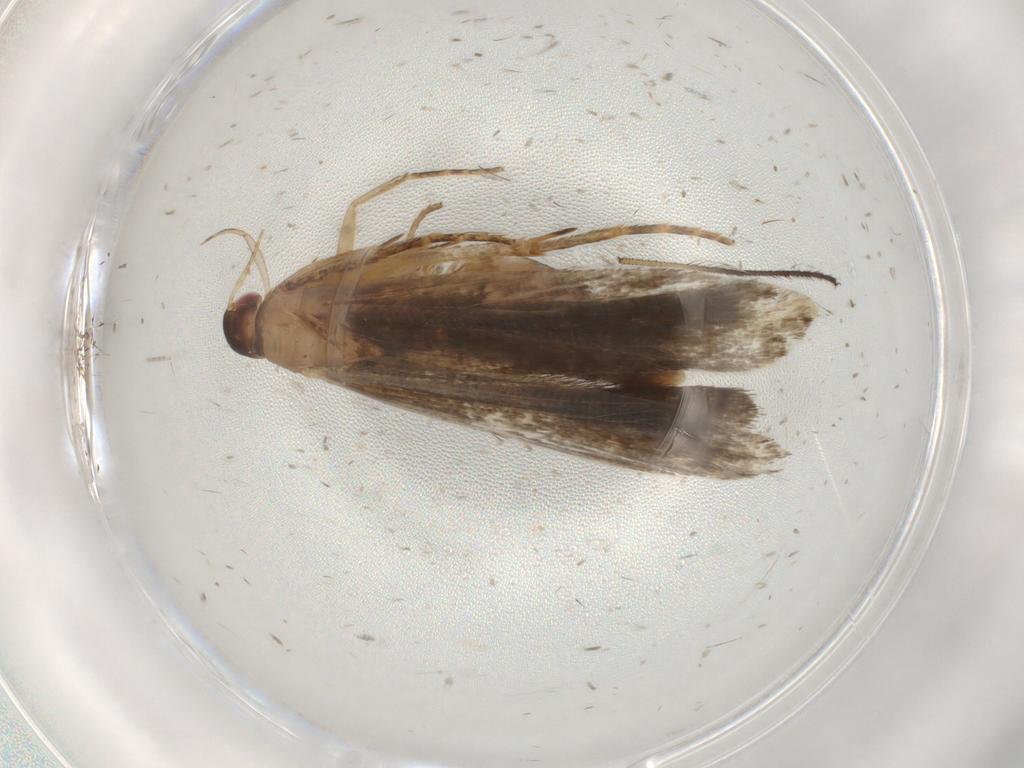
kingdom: Animalia
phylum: Arthropoda
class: Insecta
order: Lepidoptera
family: Gelechiidae
